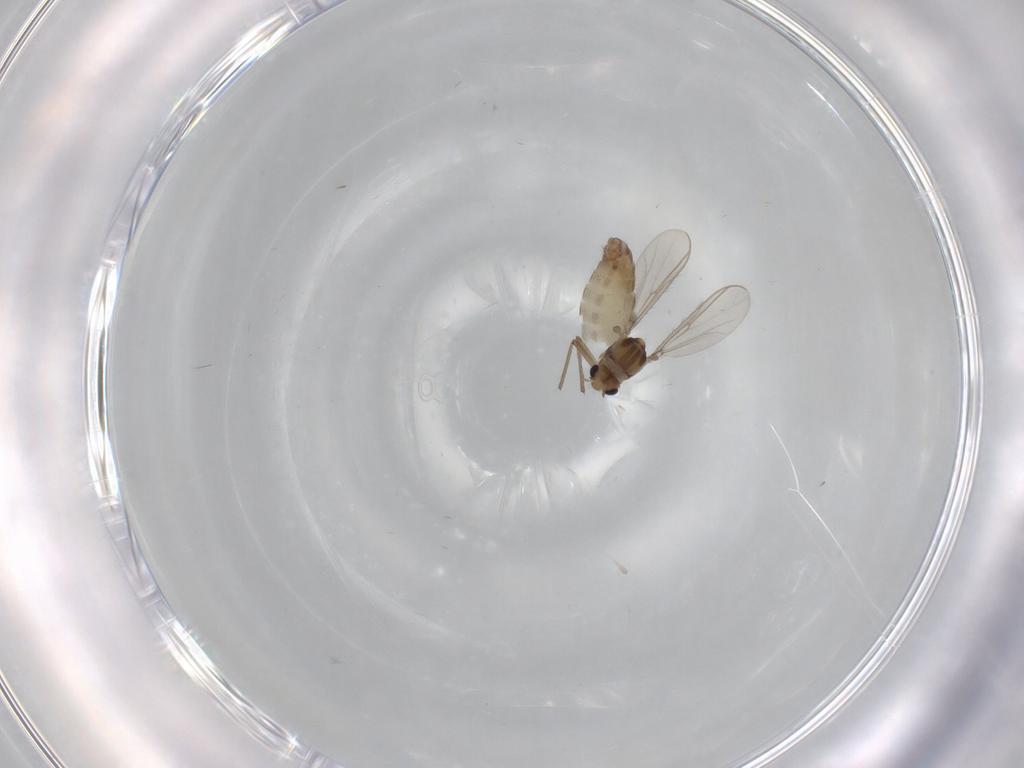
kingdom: Animalia
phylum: Arthropoda
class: Insecta
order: Diptera
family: Chironomidae
